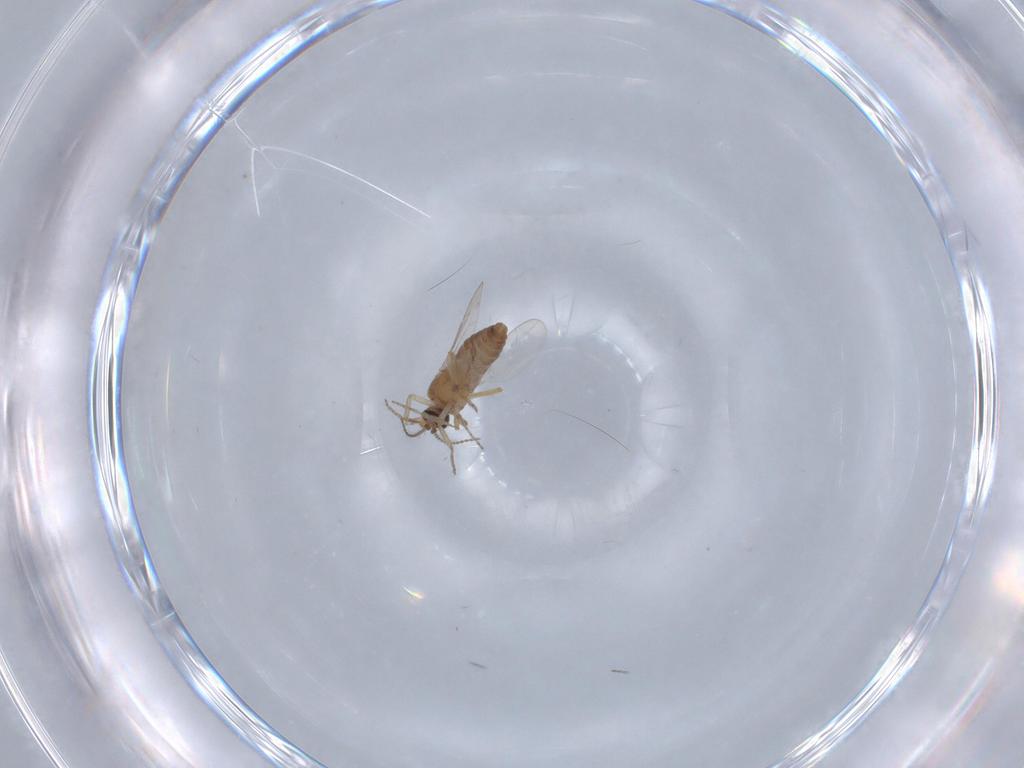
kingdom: Animalia
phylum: Arthropoda
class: Insecta
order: Diptera
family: Ceratopogonidae
